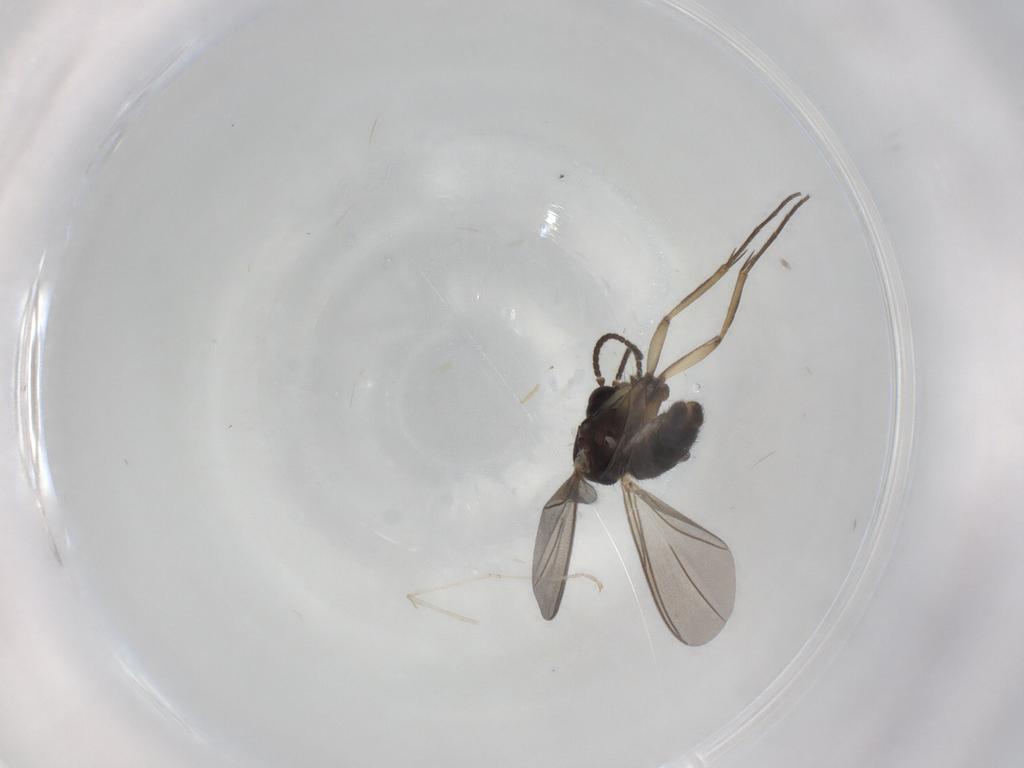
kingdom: Animalia
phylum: Arthropoda
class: Insecta
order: Diptera
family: Mycetophilidae
